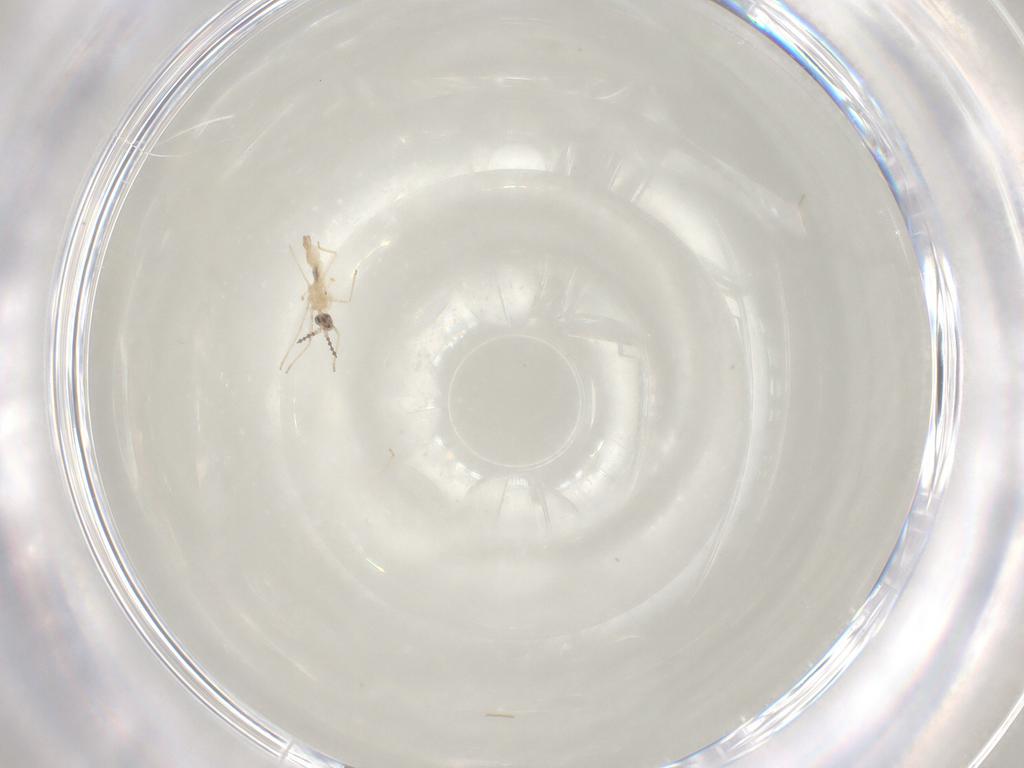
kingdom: Animalia
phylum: Arthropoda
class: Insecta
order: Diptera
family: Cecidomyiidae
